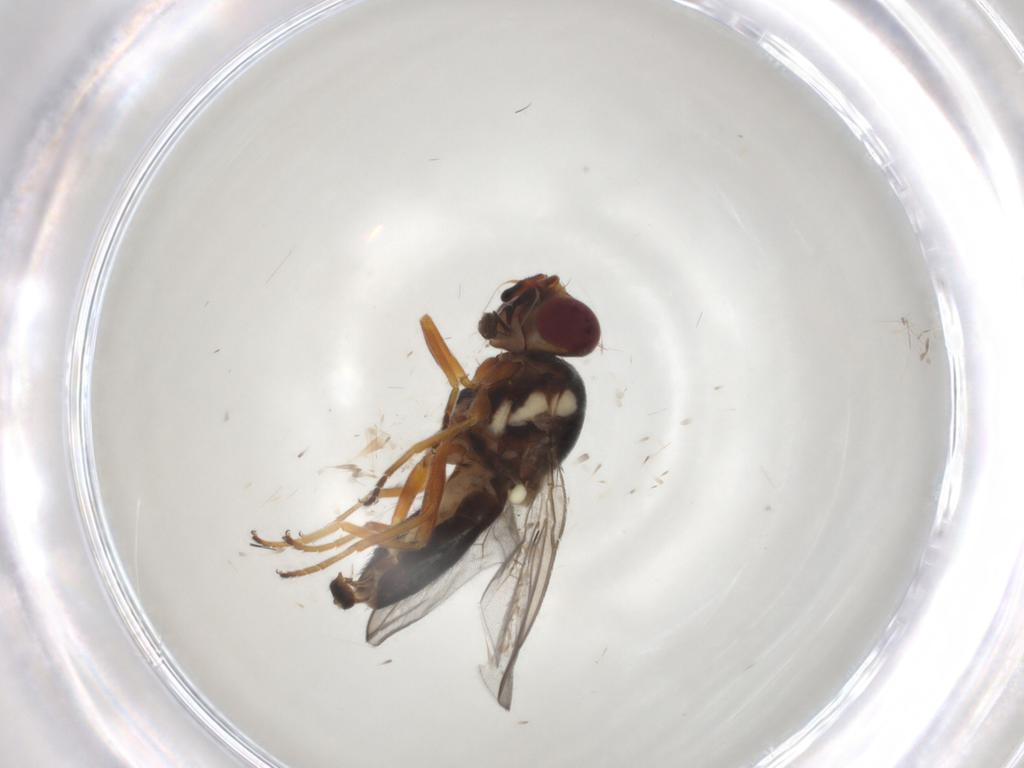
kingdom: Animalia
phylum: Arthropoda
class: Insecta
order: Diptera
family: Chloropidae
